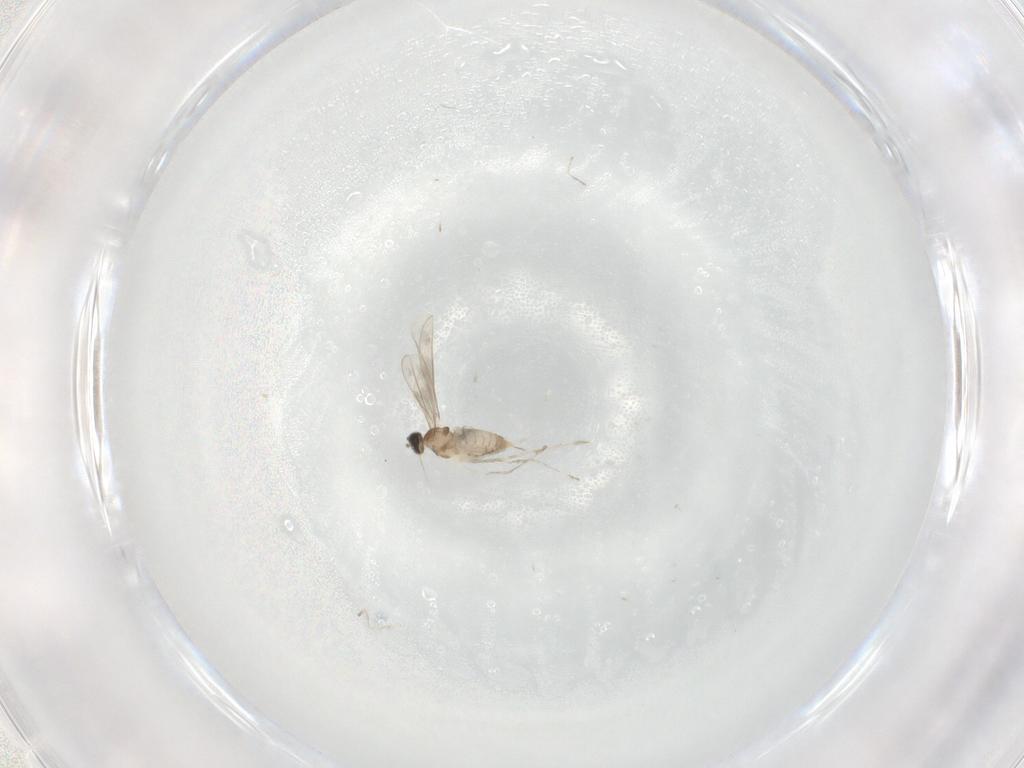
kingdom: Animalia
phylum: Arthropoda
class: Insecta
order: Diptera
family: Cecidomyiidae
